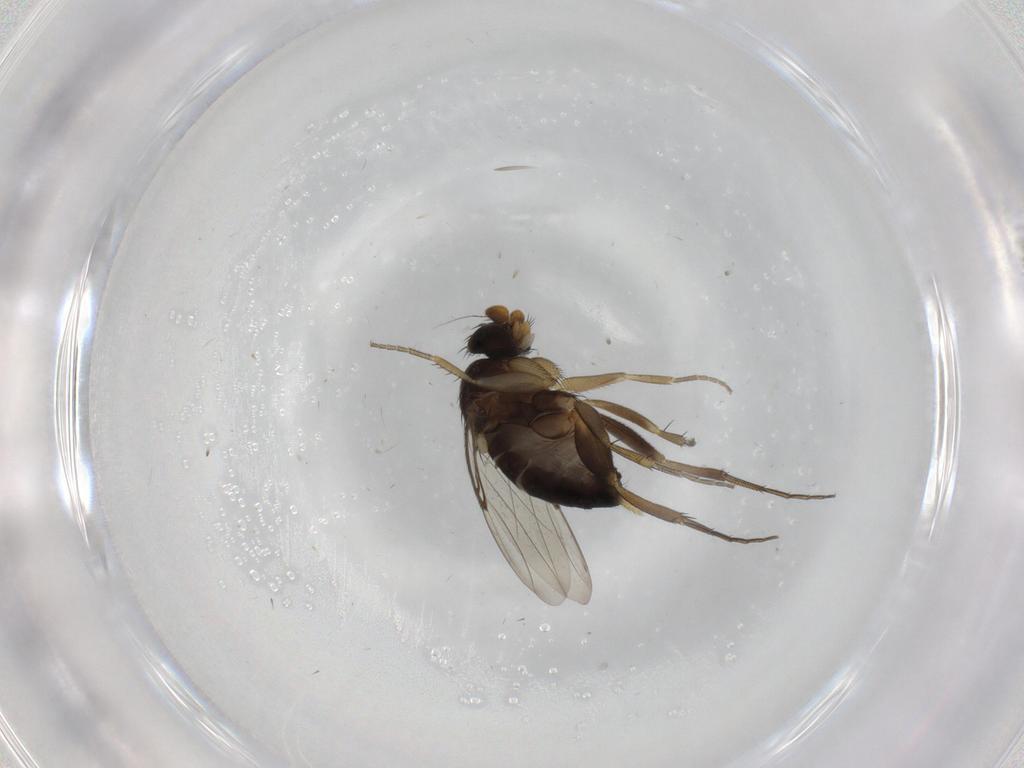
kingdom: Animalia
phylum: Arthropoda
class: Insecta
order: Diptera
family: Phoridae
